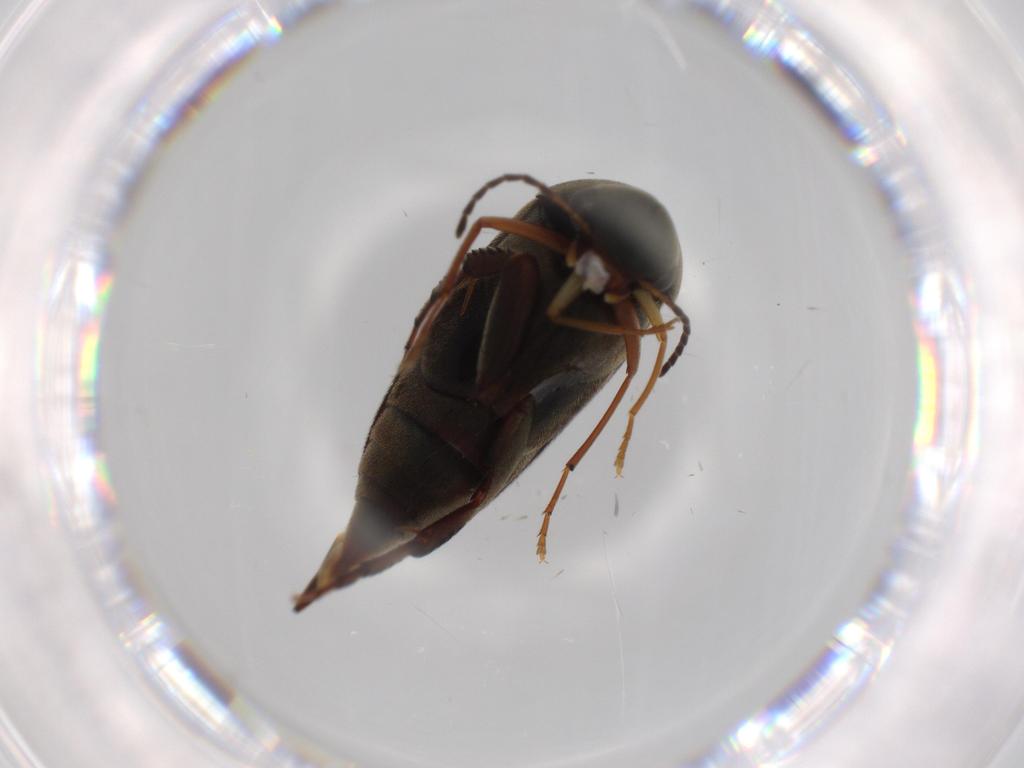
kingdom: Animalia
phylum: Arthropoda
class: Insecta
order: Coleoptera
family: Mordellidae
